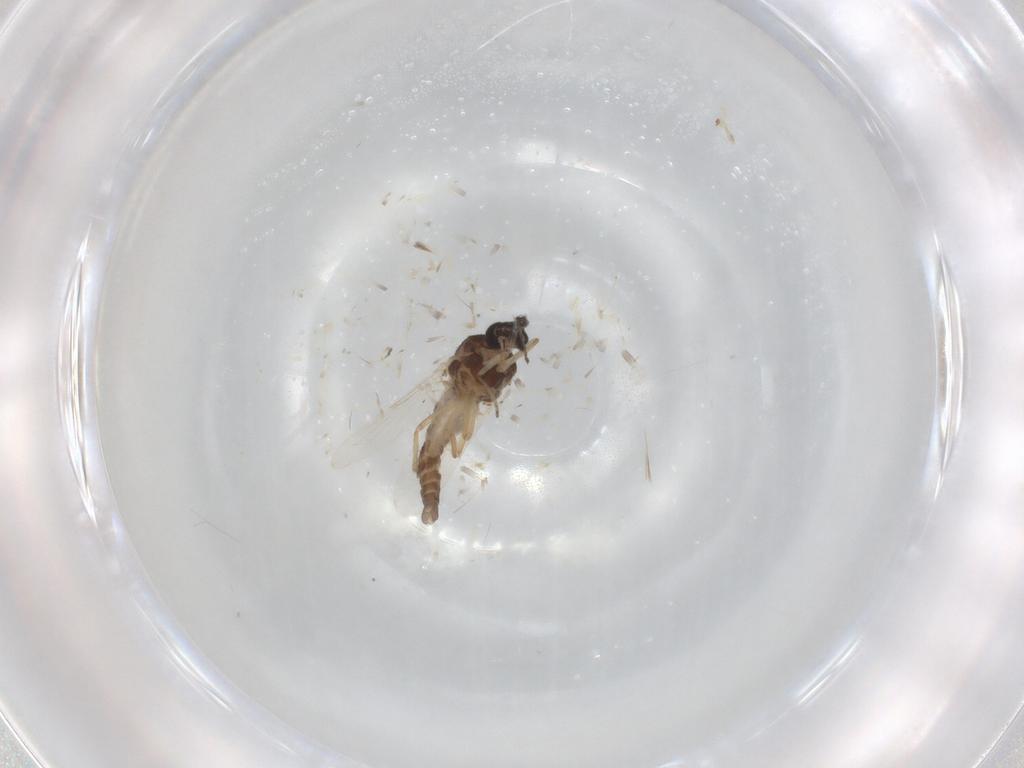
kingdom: Animalia
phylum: Arthropoda
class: Insecta
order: Diptera
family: Ceratopogonidae
